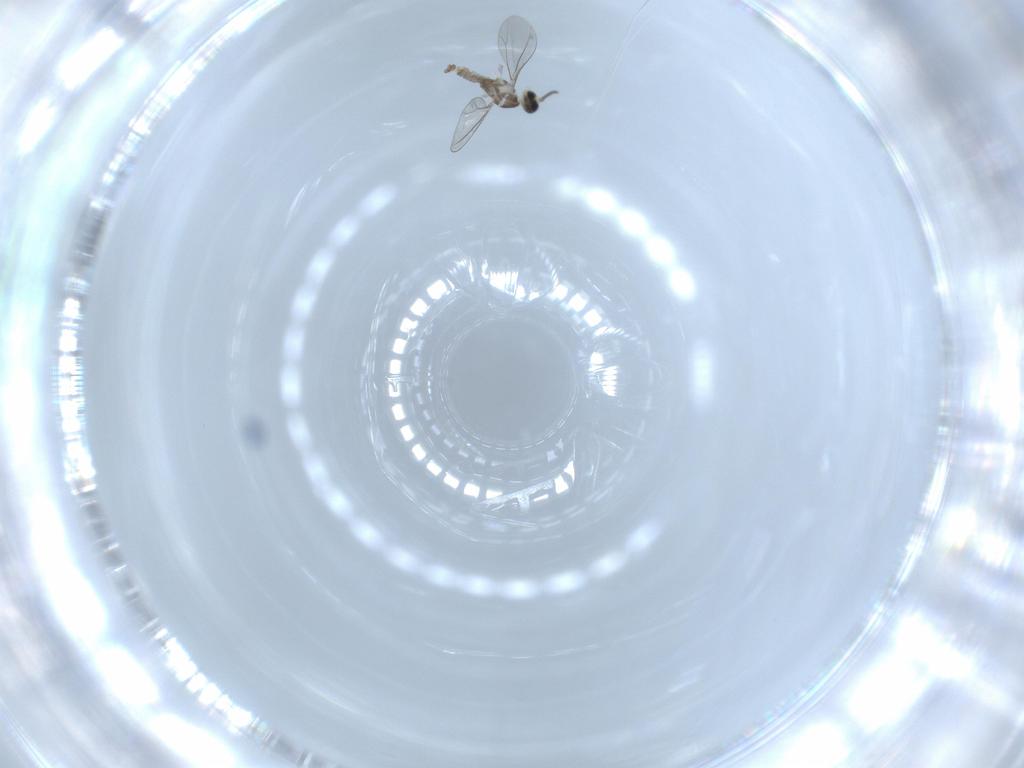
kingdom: Animalia
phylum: Arthropoda
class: Insecta
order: Diptera
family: Cecidomyiidae
